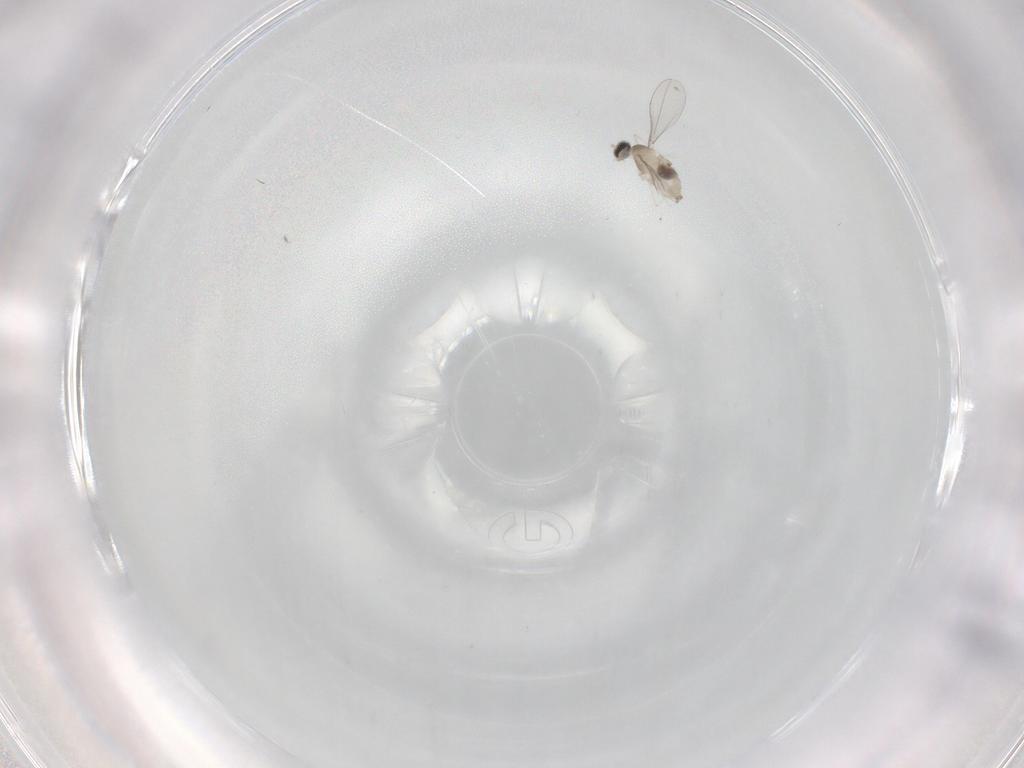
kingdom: Animalia
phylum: Arthropoda
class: Insecta
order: Diptera
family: Cecidomyiidae
